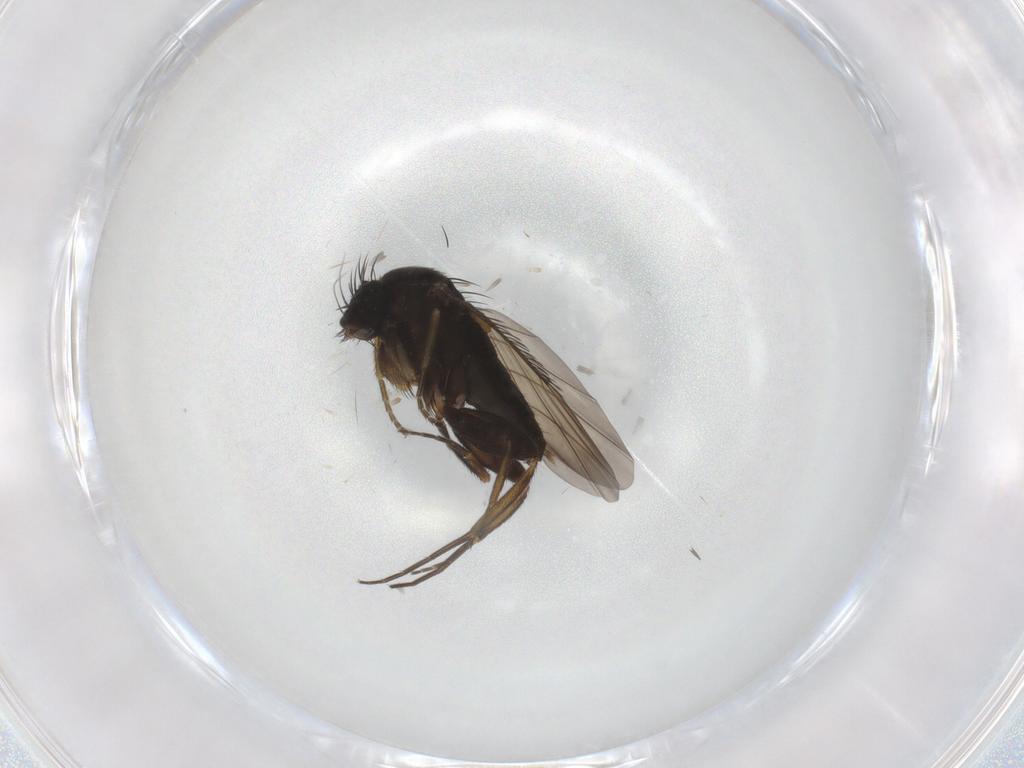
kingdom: Animalia
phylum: Arthropoda
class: Insecta
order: Diptera
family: Phoridae
